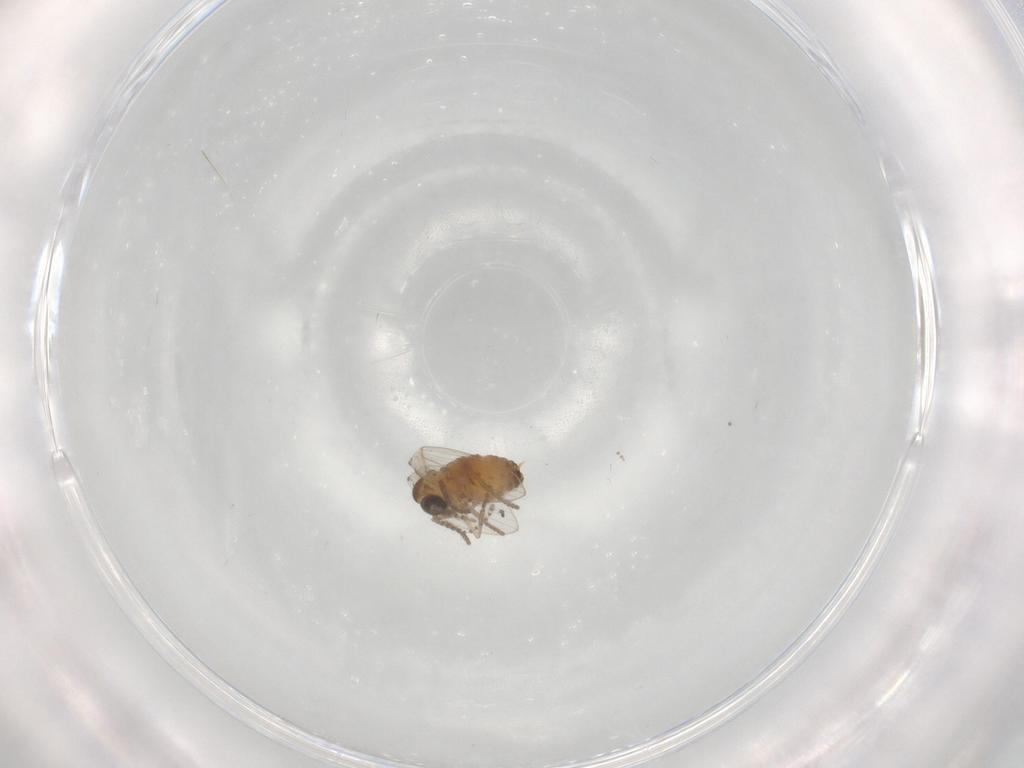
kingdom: Animalia
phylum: Arthropoda
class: Insecta
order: Diptera
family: Psychodidae
